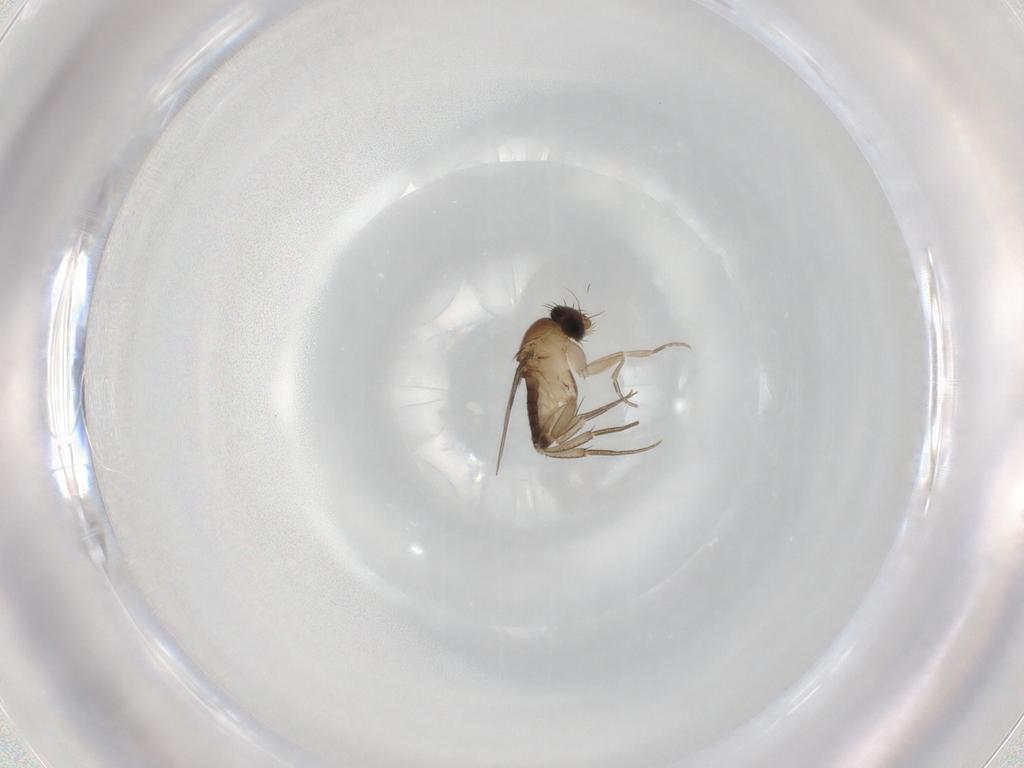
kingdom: Animalia
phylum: Arthropoda
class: Insecta
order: Diptera
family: Phoridae
